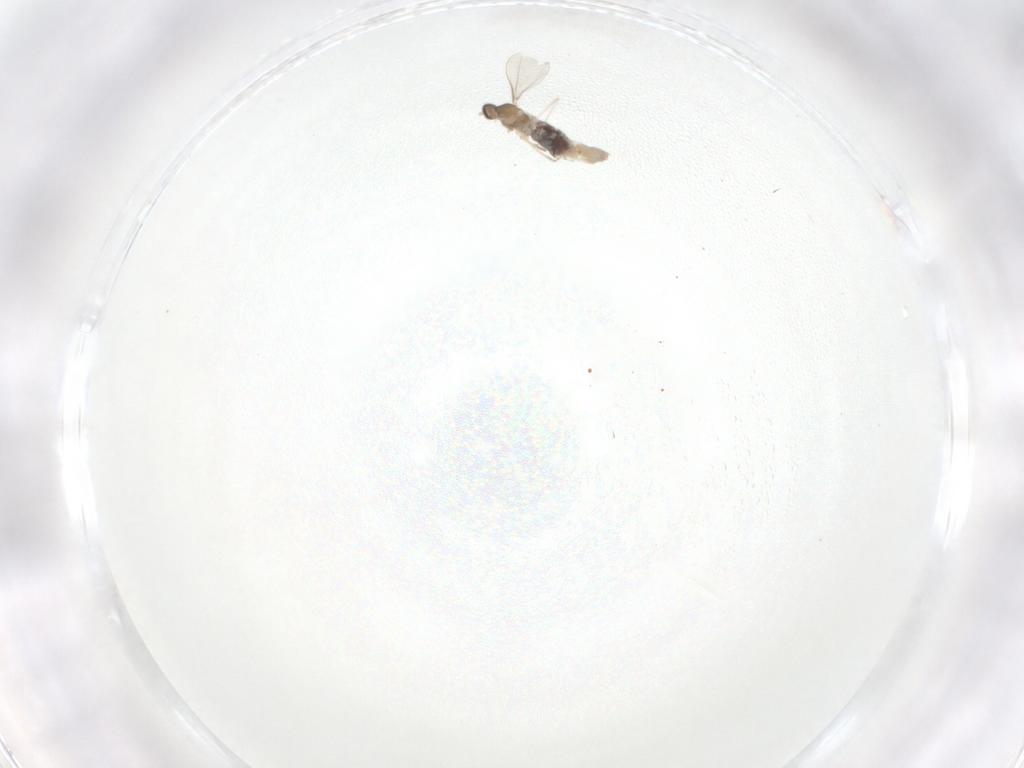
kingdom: Animalia
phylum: Arthropoda
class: Insecta
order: Diptera
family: Cecidomyiidae
